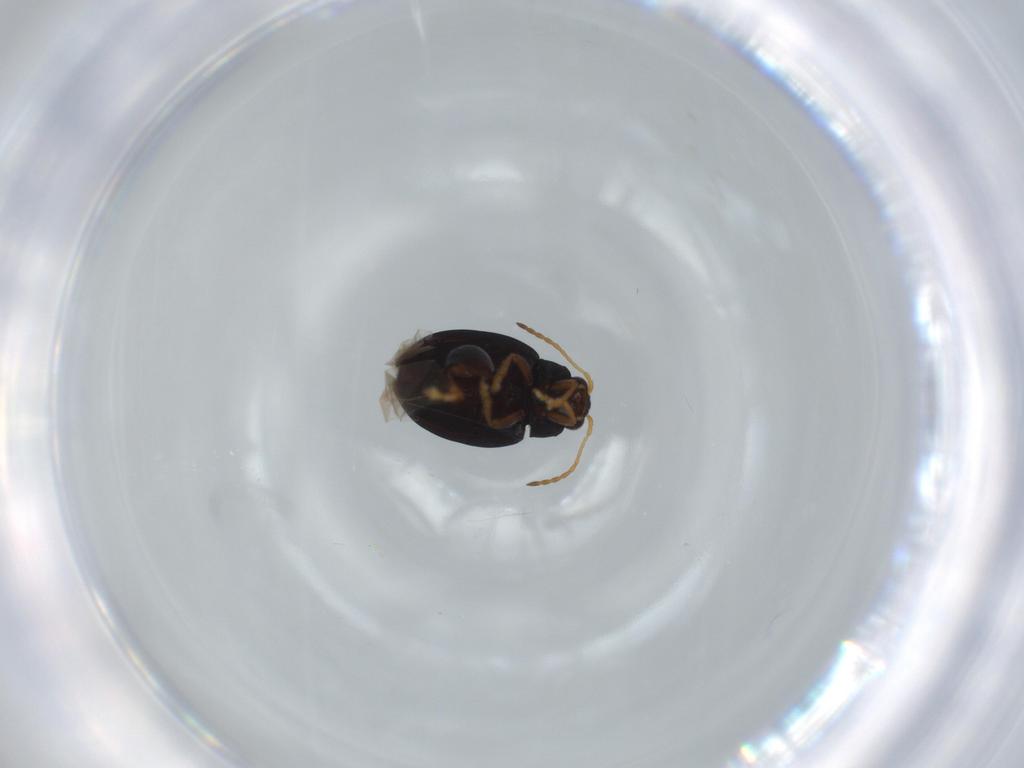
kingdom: Animalia
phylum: Arthropoda
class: Insecta
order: Coleoptera
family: Chrysomelidae
